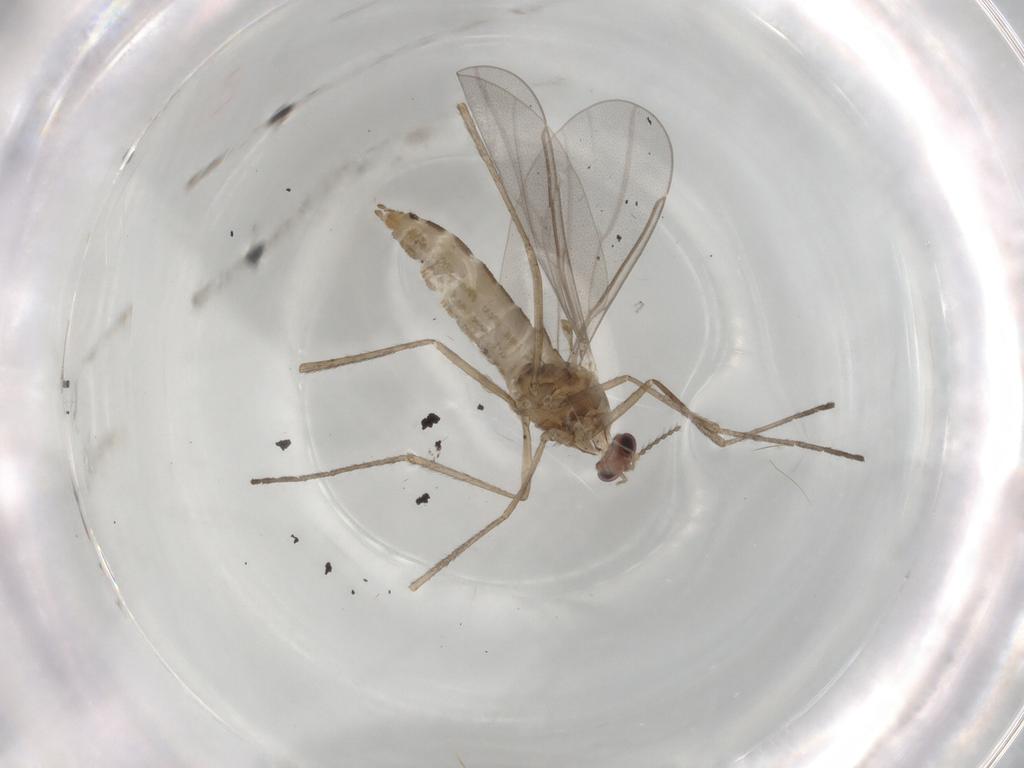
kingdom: Animalia
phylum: Arthropoda
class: Insecta
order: Diptera
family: Cecidomyiidae
